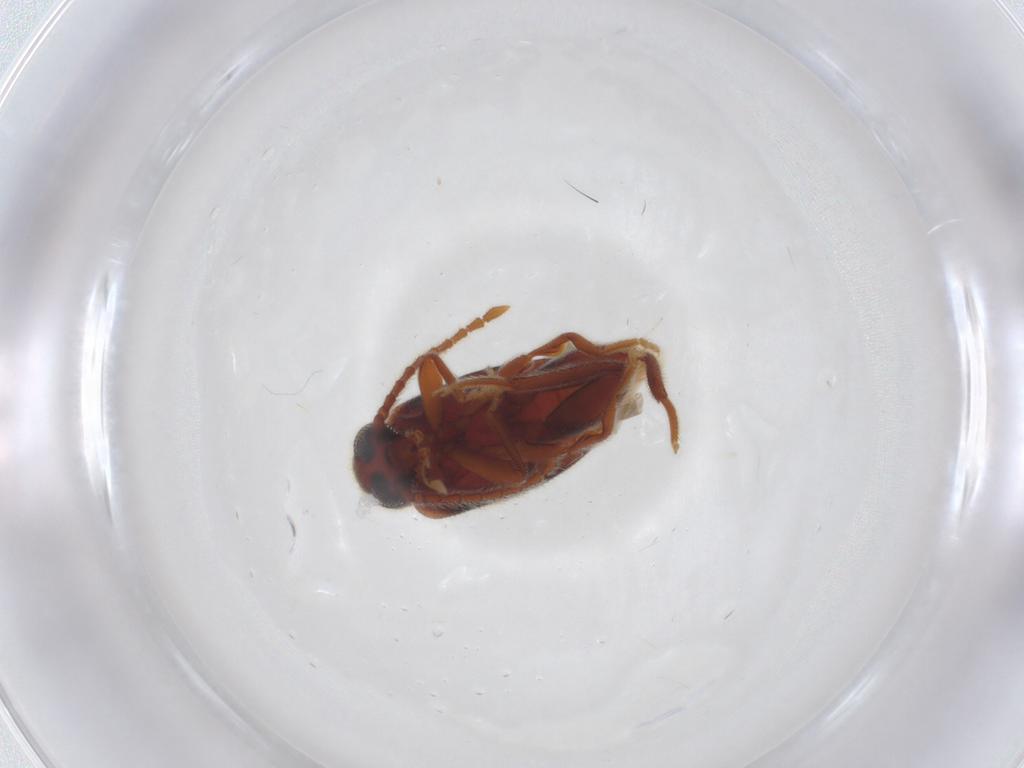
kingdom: Animalia
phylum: Arthropoda
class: Insecta
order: Coleoptera
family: Aderidae
